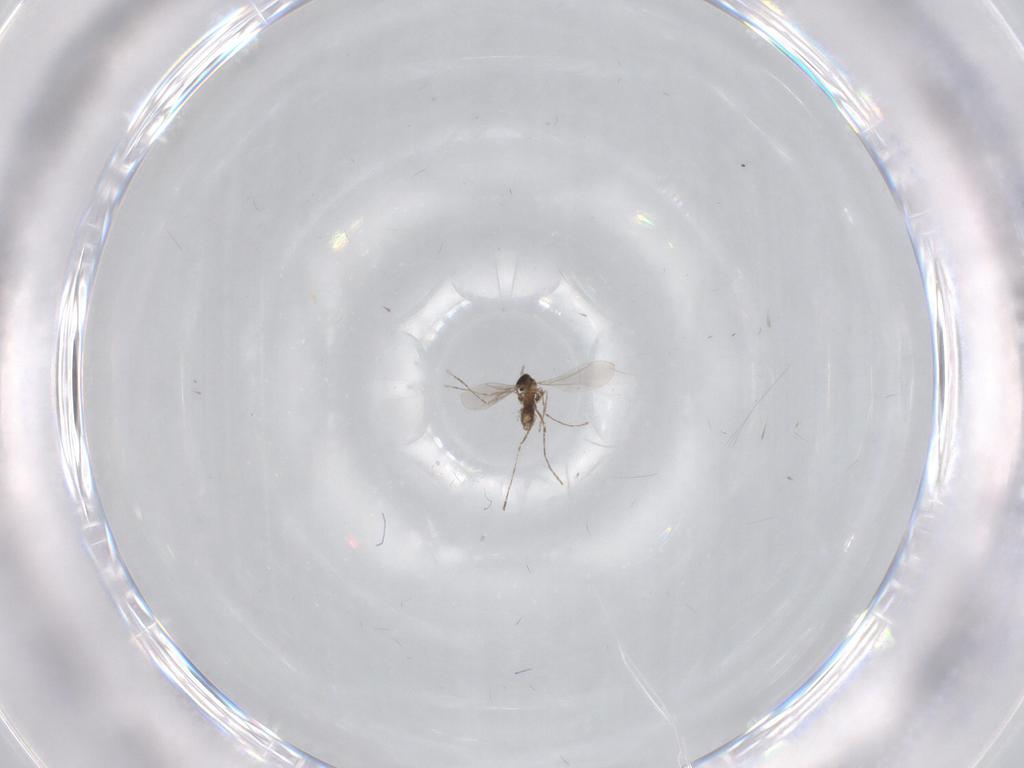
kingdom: Animalia
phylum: Arthropoda
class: Insecta
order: Diptera
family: Cecidomyiidae
